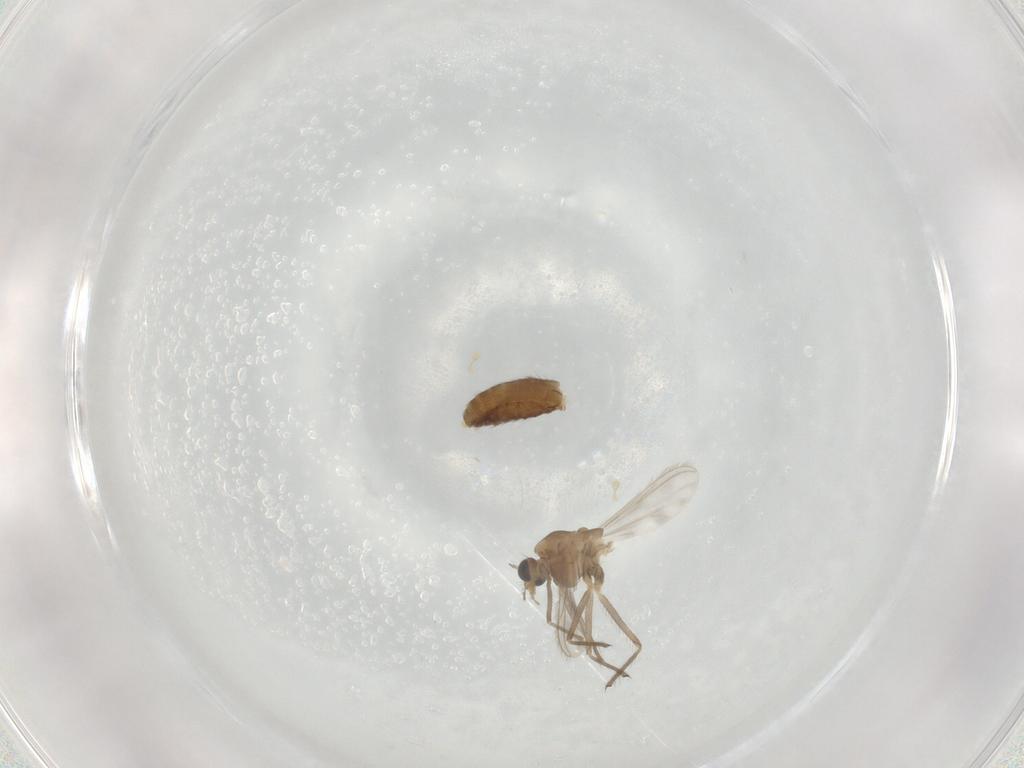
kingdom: Animalia
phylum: Arthropoda
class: Insecta
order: Diptera
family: Chironomidae
